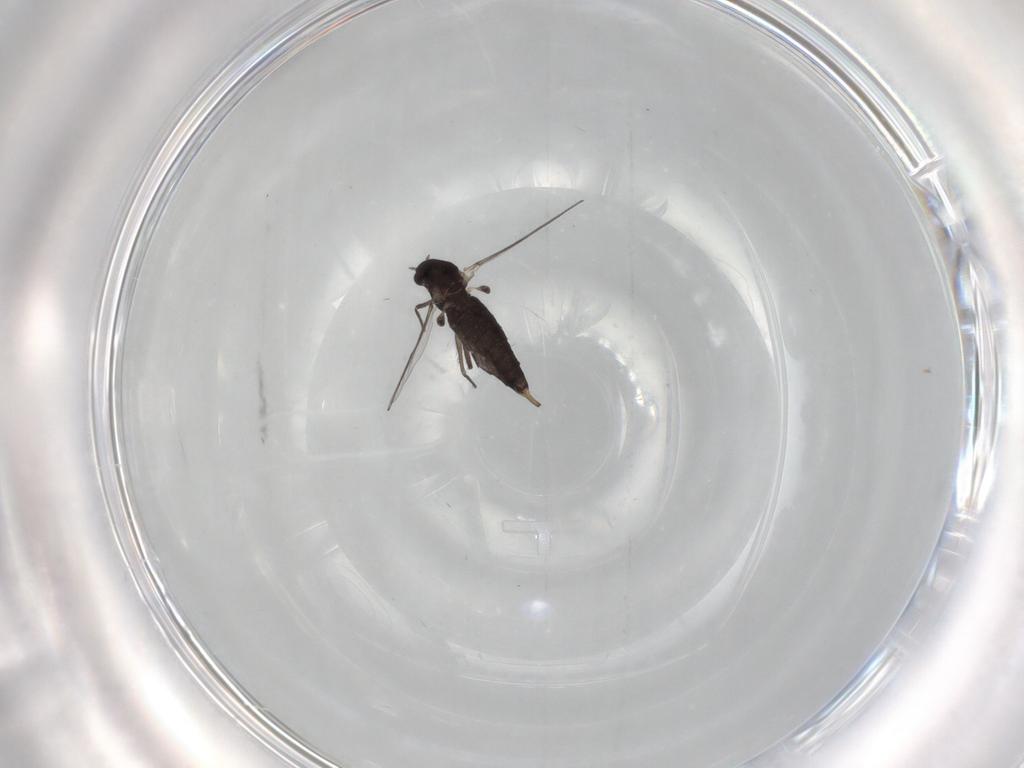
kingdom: Animalia
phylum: Arthropoda
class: Insecta
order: Diptera
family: Chironomidae
